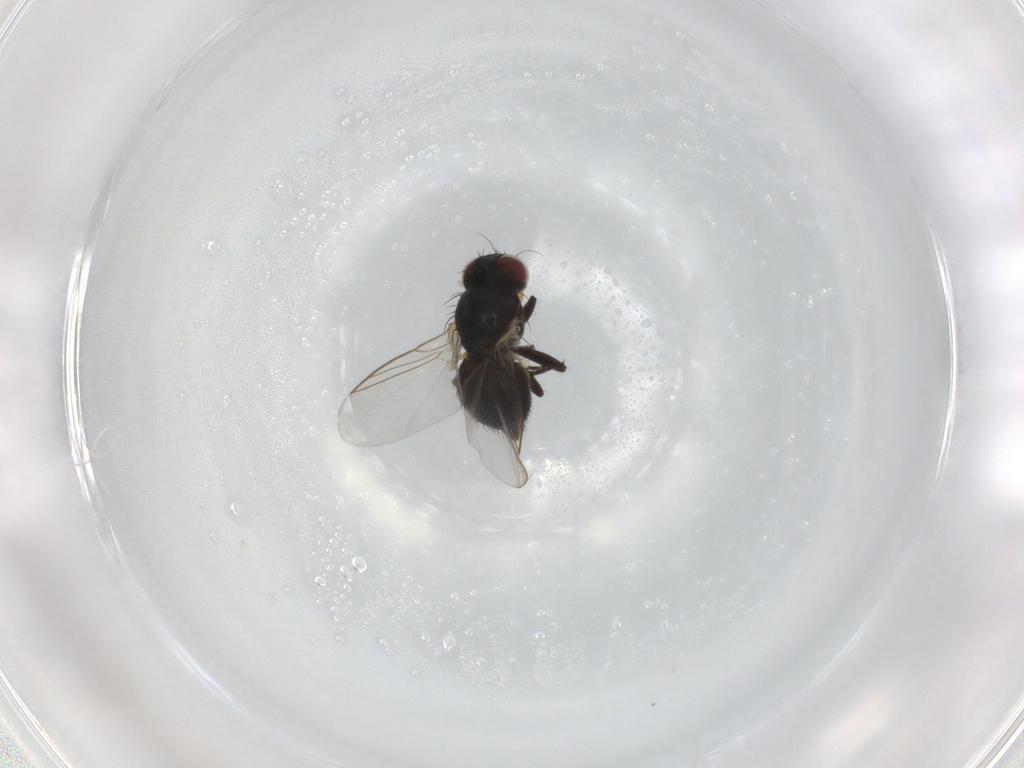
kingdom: Animalia
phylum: Arthropoda
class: Insecta
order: Diptera
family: Agromyzidae
